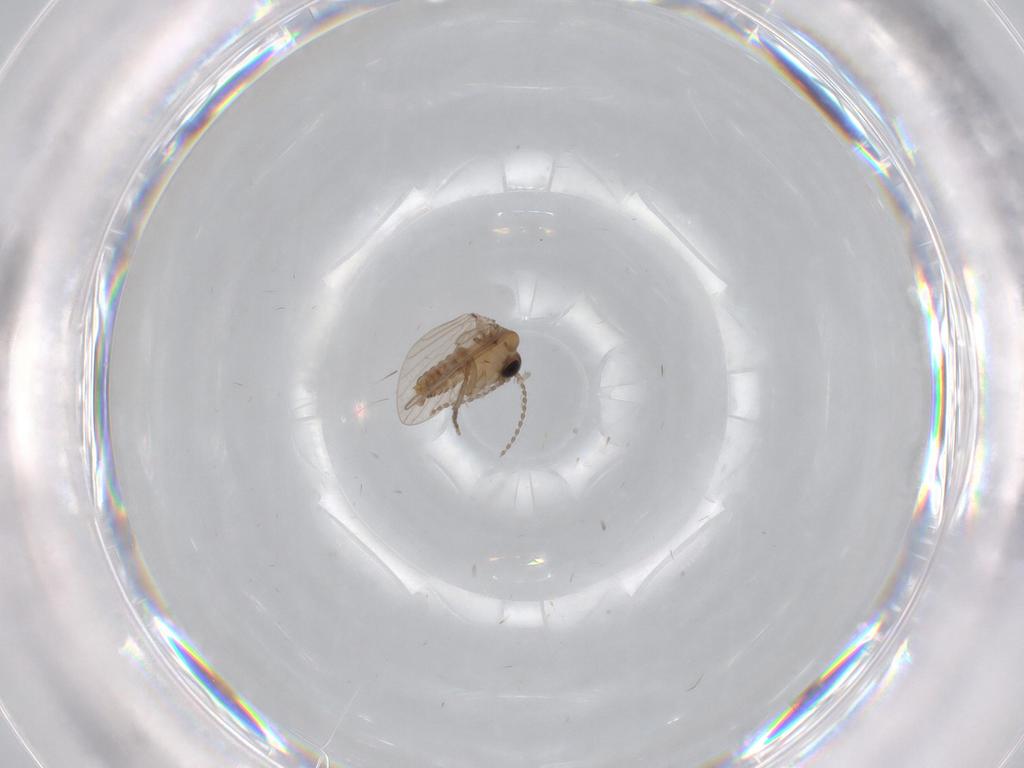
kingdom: Animalia
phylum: Arthropoda
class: Insecta
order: Diptera
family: Psychodidae
